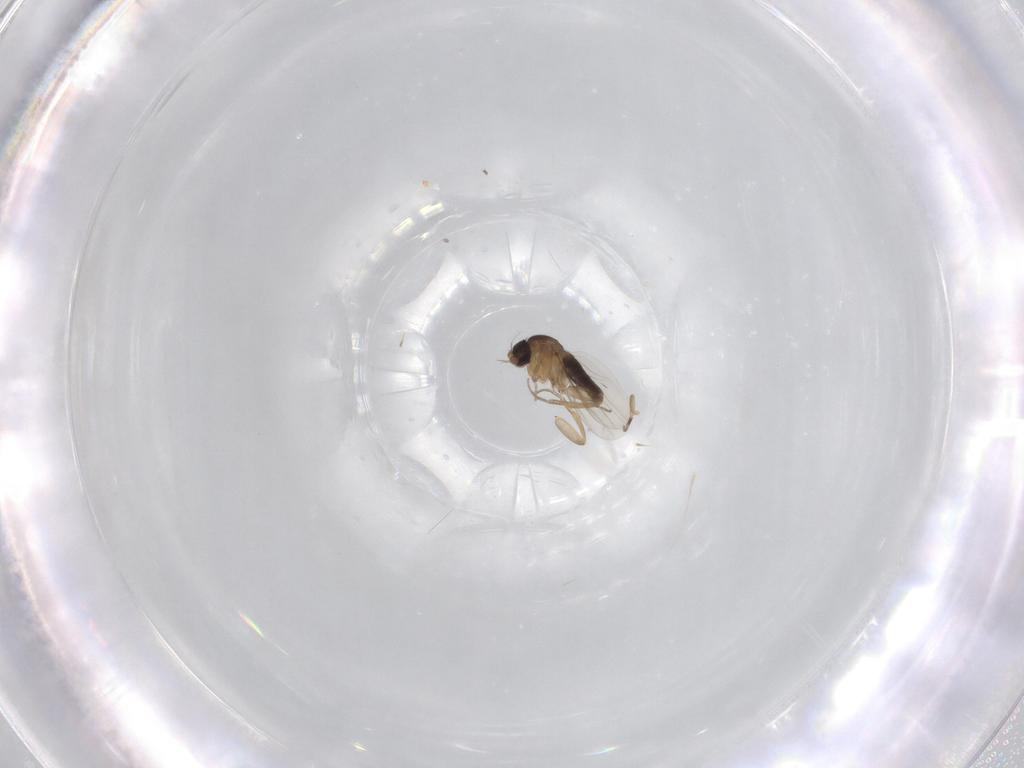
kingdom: Animalia
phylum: Arthropoda
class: Insecta
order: Diptera
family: Phoridae
